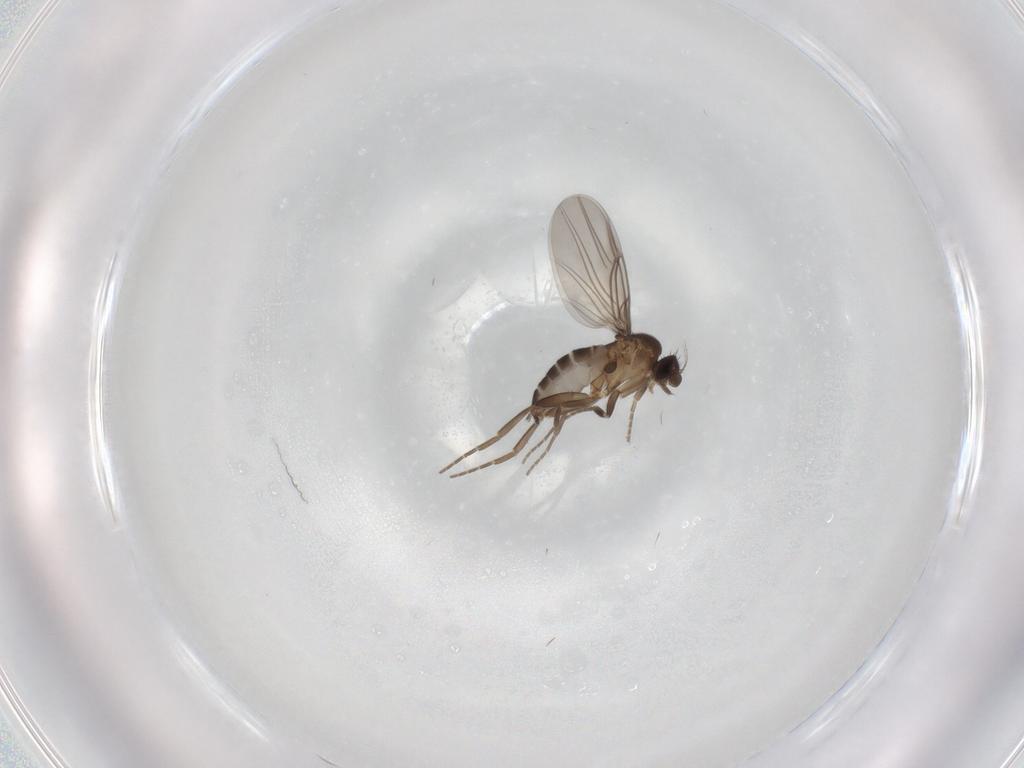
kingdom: Animalia
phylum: Arthropoda
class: Insecta
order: Diptera
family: Phoridae
